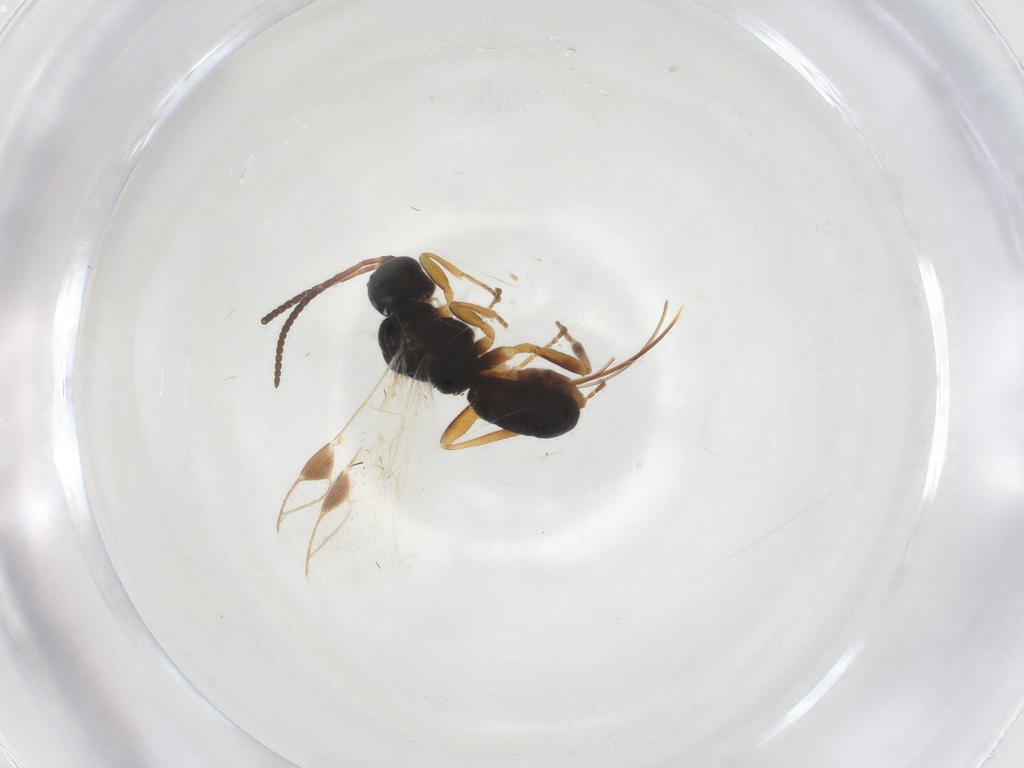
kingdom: Animalia
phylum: Arthropoda
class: Insecta
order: Hymenoptera
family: Braconidae
